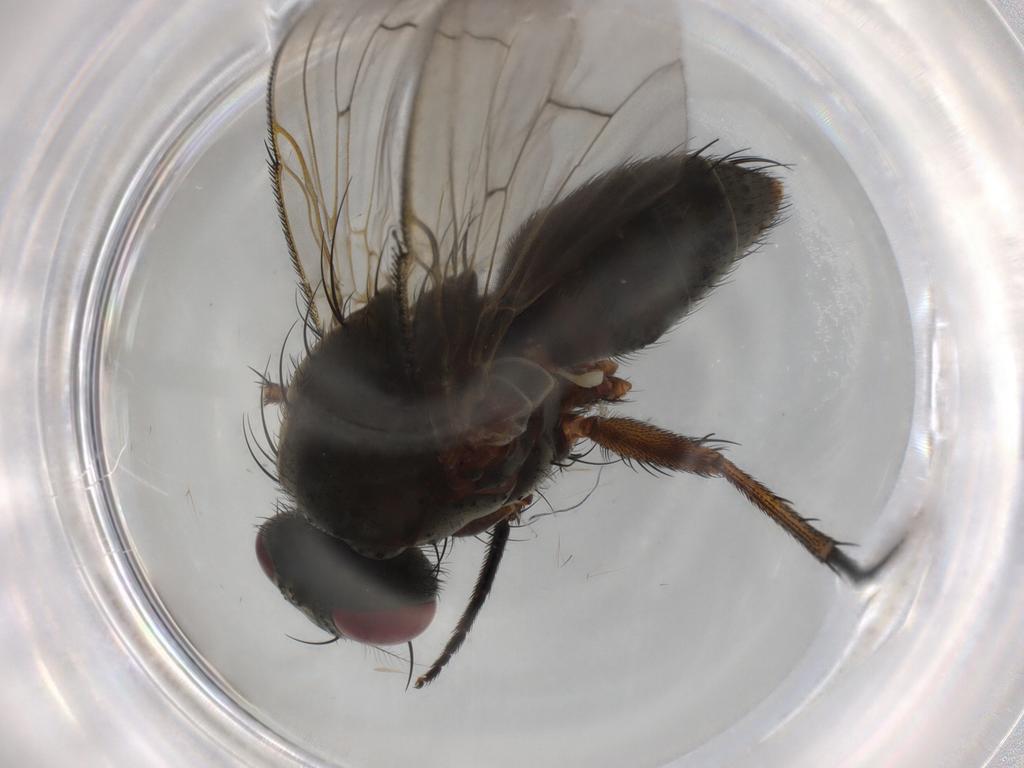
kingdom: Animalia
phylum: Arthropoda
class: Insecta
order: Diptera
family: Muscidae
